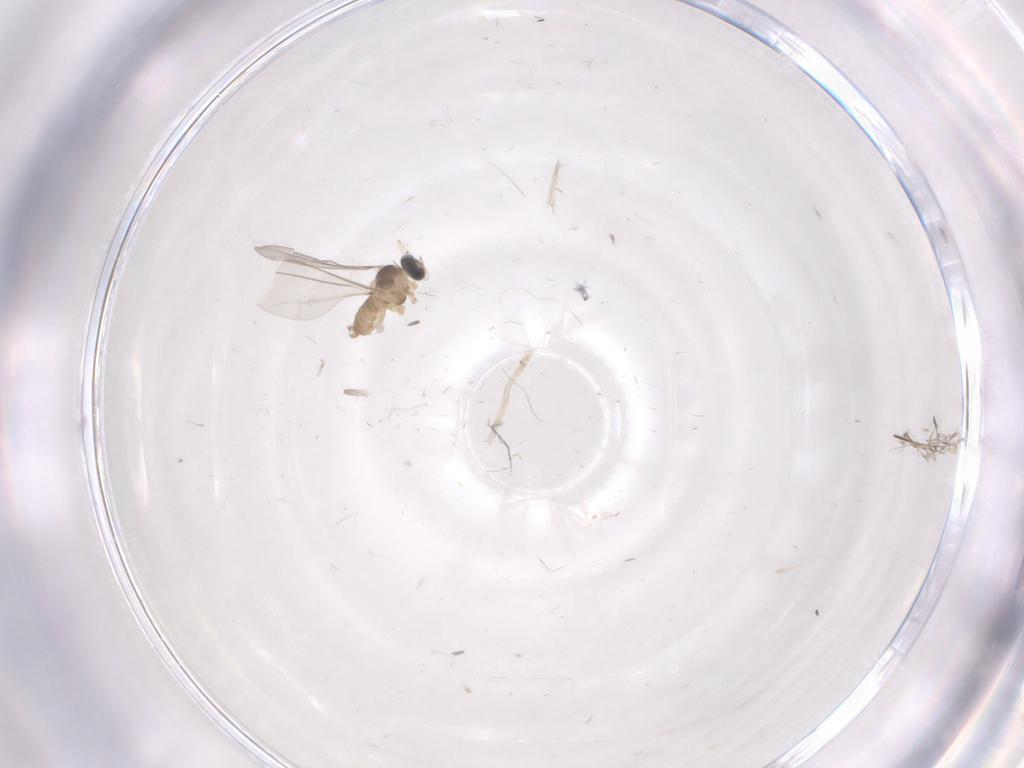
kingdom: Animalia
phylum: Arthropoda
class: Insecta
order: Diptera
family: Cecidomyiidae
